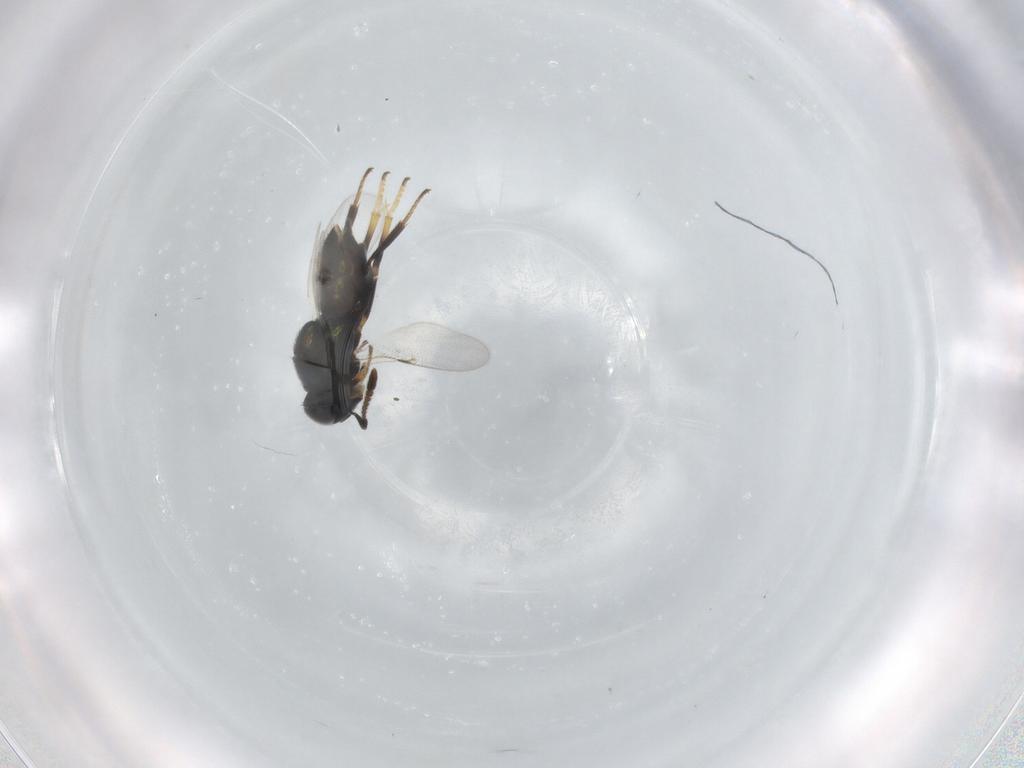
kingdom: Animalia
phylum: Arthropoda
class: Insecta
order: Hymenoptera
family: Encyrtidae
